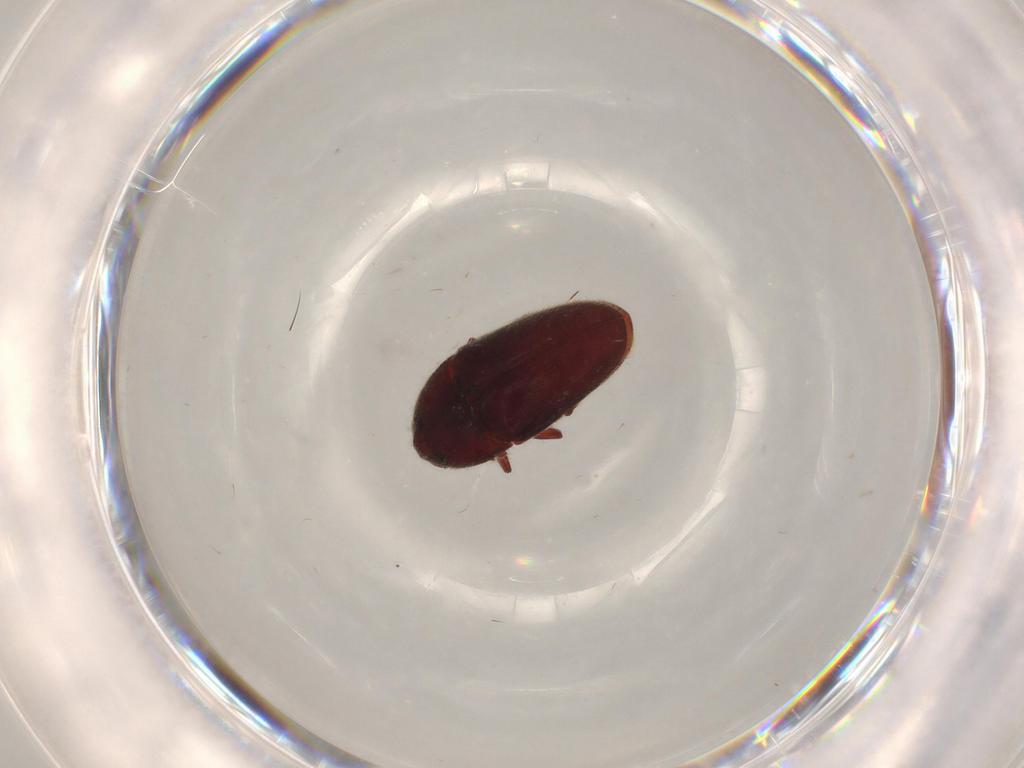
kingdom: Animalia
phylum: Arthropoda
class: Insecta
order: Coleoptera
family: Throscidae
